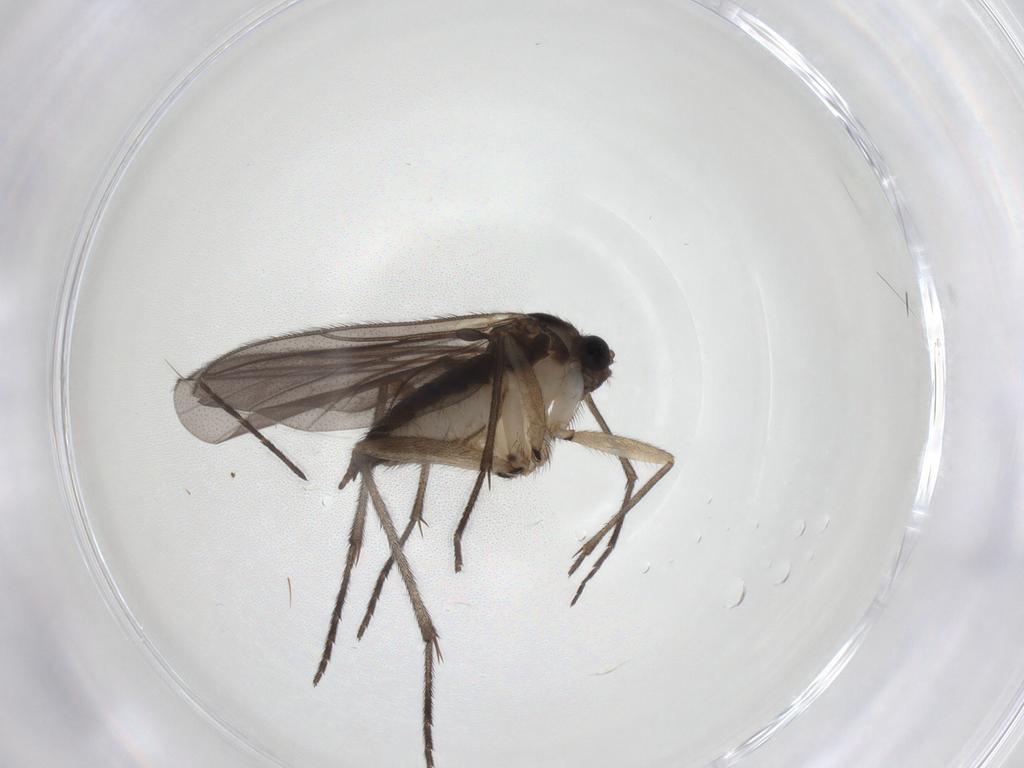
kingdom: Animalia
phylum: Arthropoda
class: Insecta
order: Diptera
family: Sciaridae
